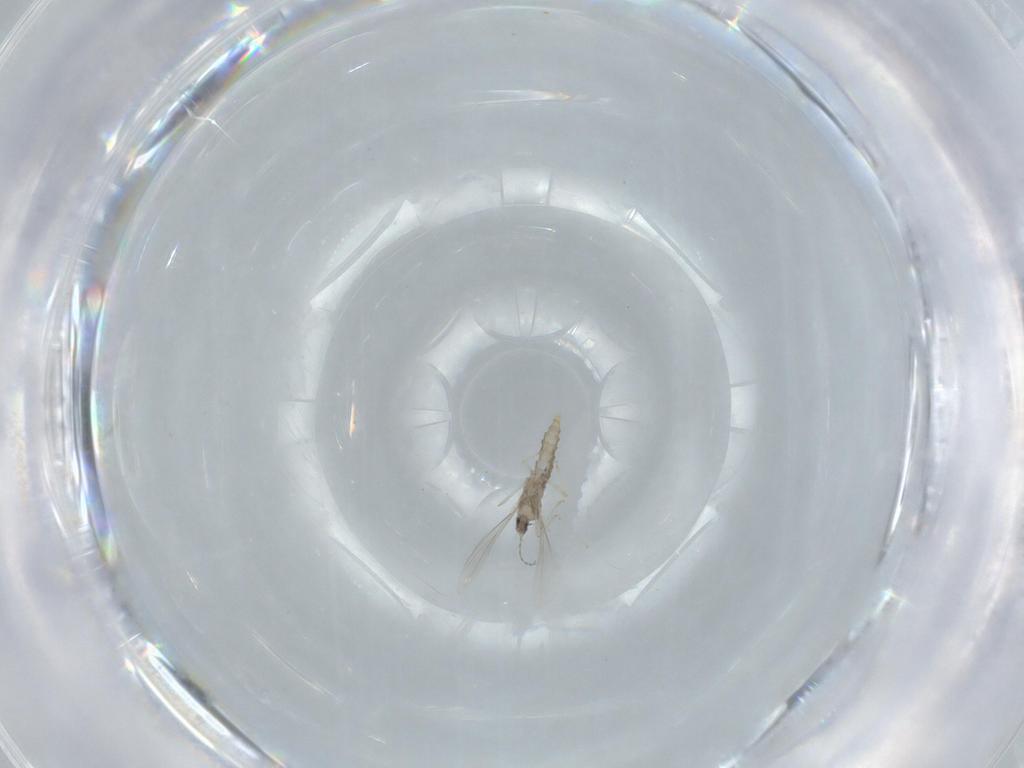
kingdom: Animalia
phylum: Arthropoda
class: Insecta
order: Diptera
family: Cecidomyiidae
